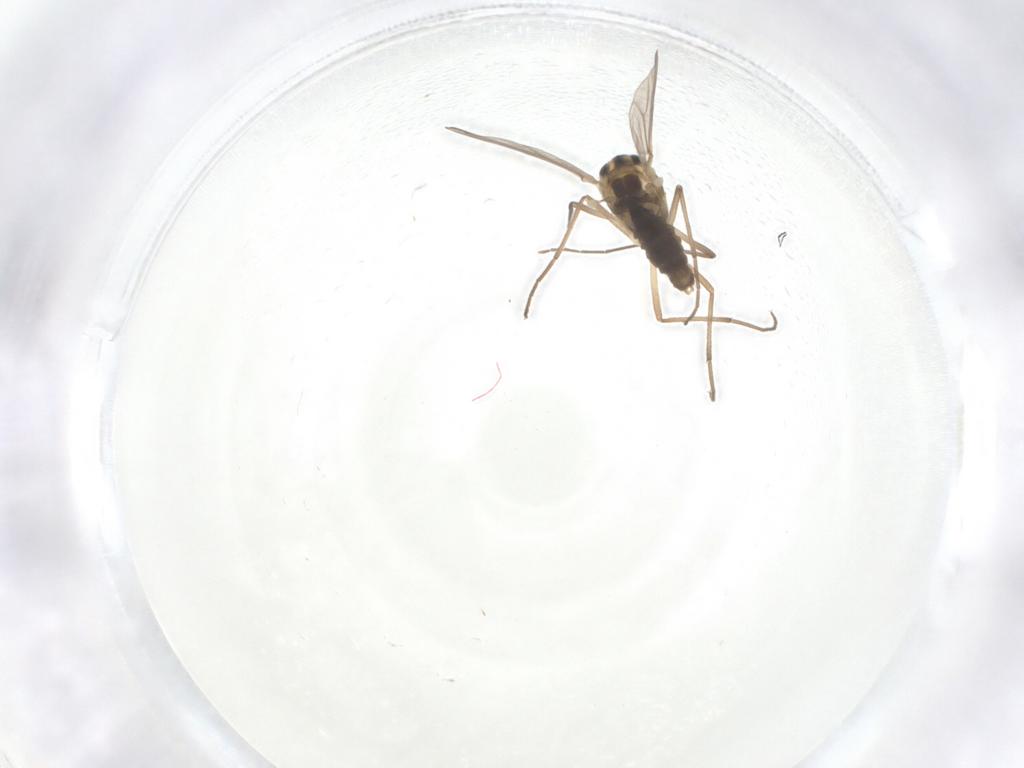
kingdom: Animalia
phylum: Arthropoda
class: Insecta
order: Diptera
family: Chironomidae
